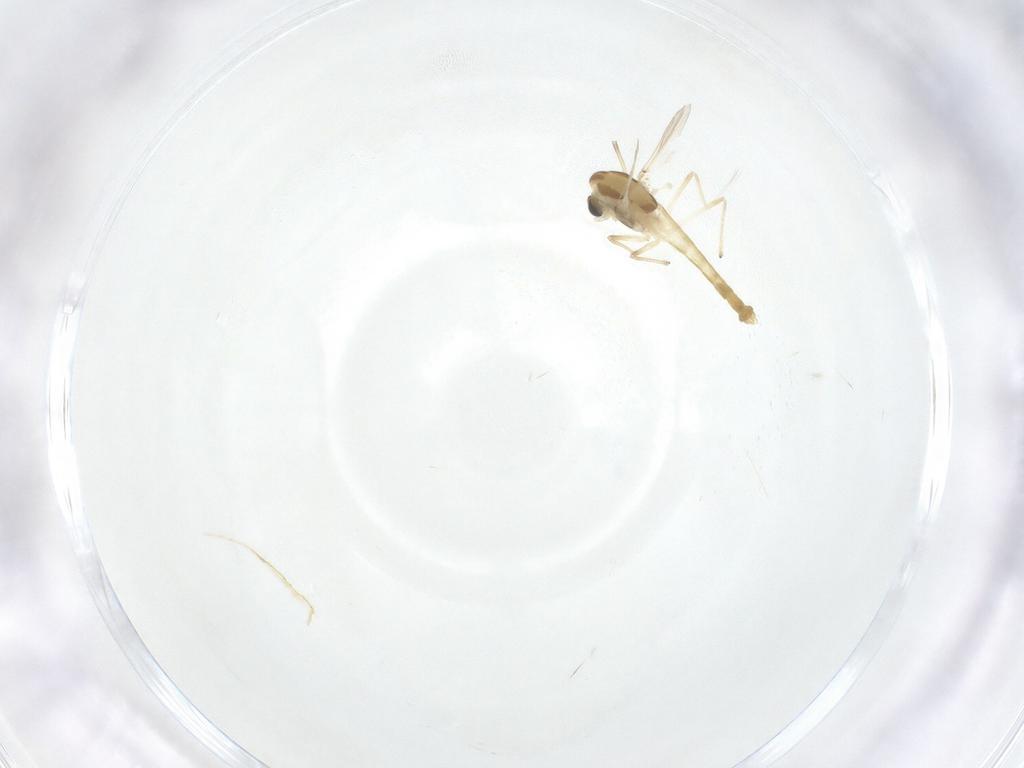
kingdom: Animalia
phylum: Arthropoda
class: Insecta
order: Diptera
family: Chironomidae
